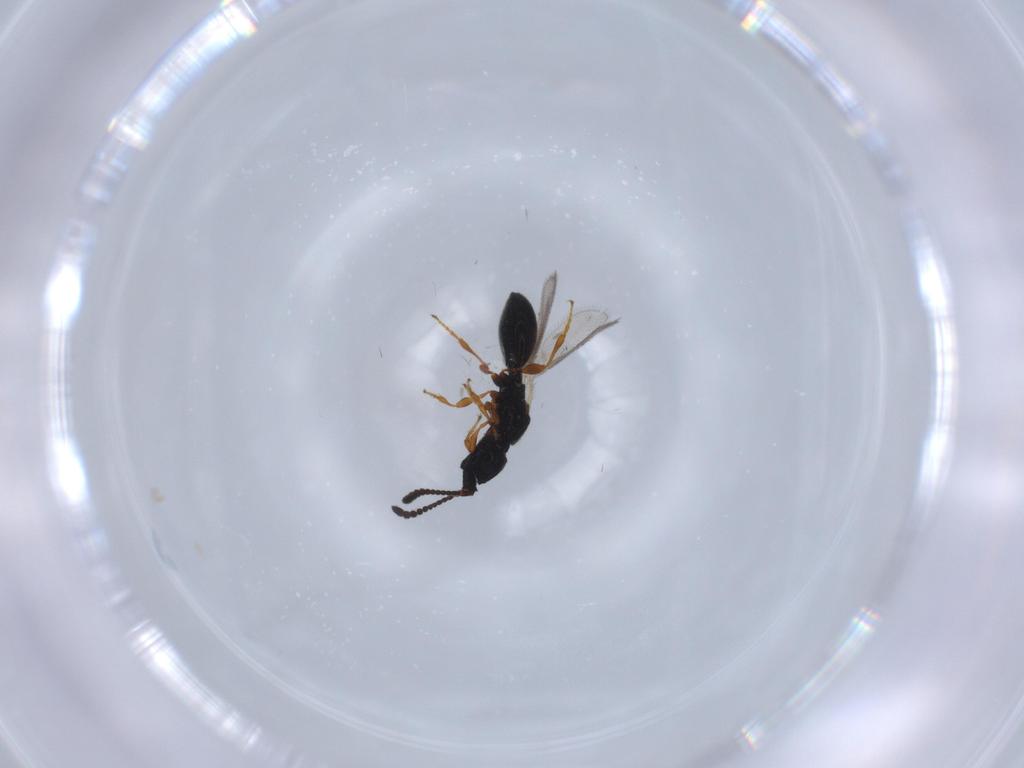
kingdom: Animalia
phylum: Arthropoda
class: Insecta
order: Hymenoptera
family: Diapriidae
